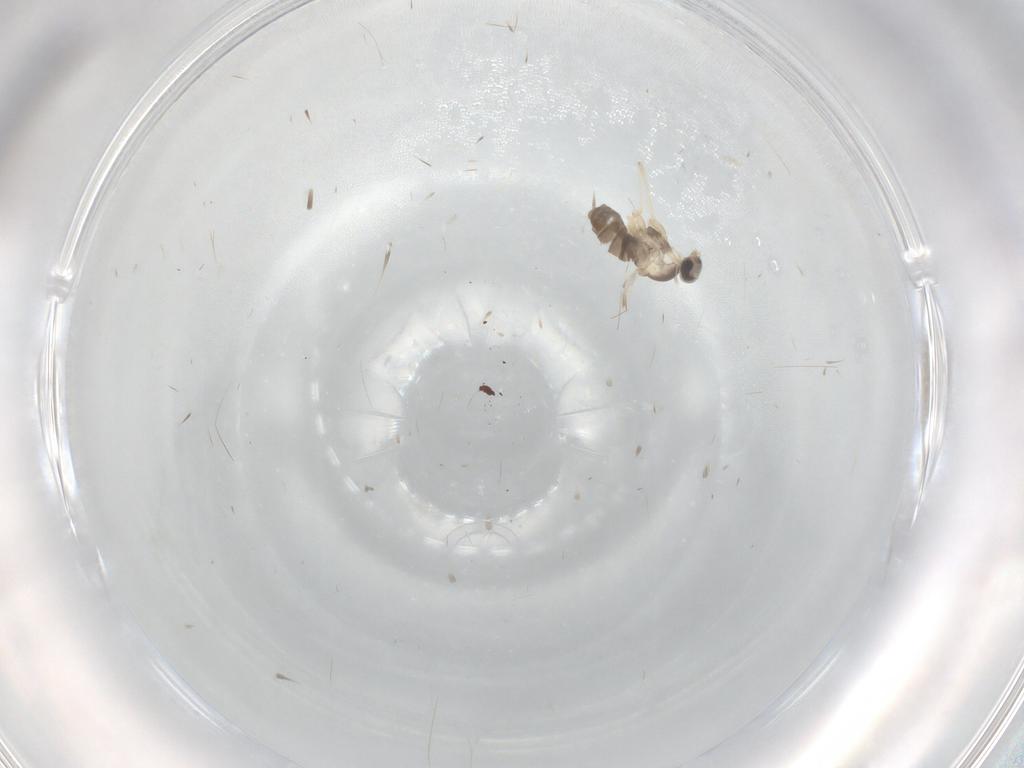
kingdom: Animalia
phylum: Arthropoda
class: Insecta
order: Diptera
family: Cecidomyiidae
